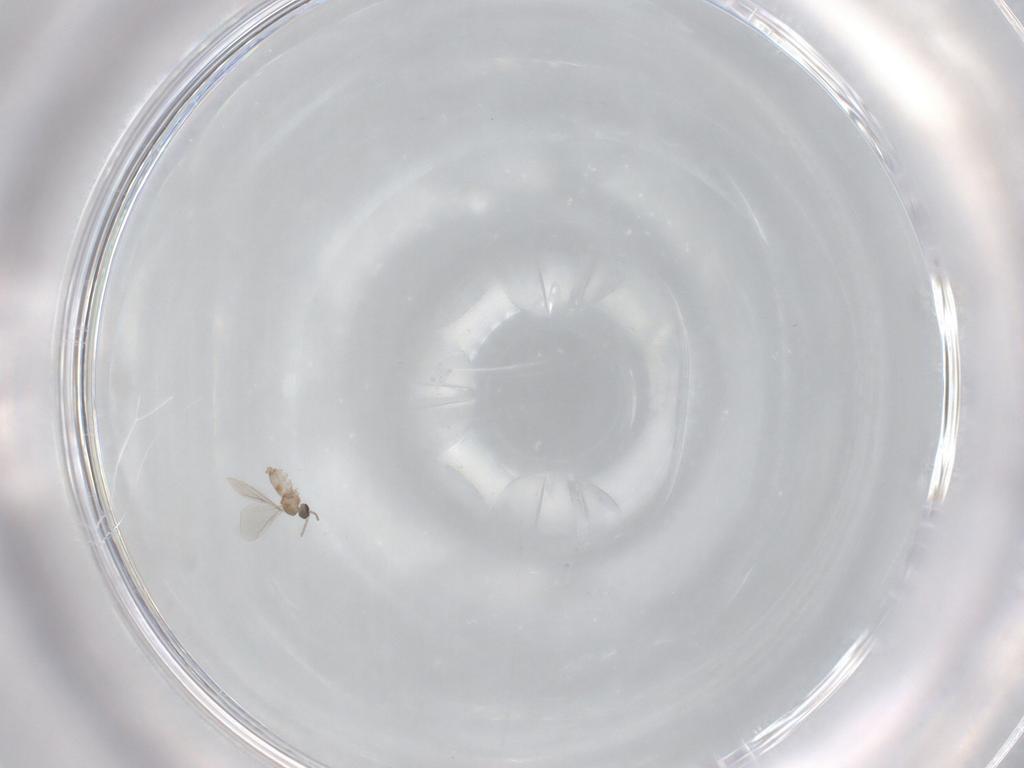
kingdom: Animalia
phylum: Arthropoda
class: Insecta
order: Diptera
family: Cecidomyiidae
